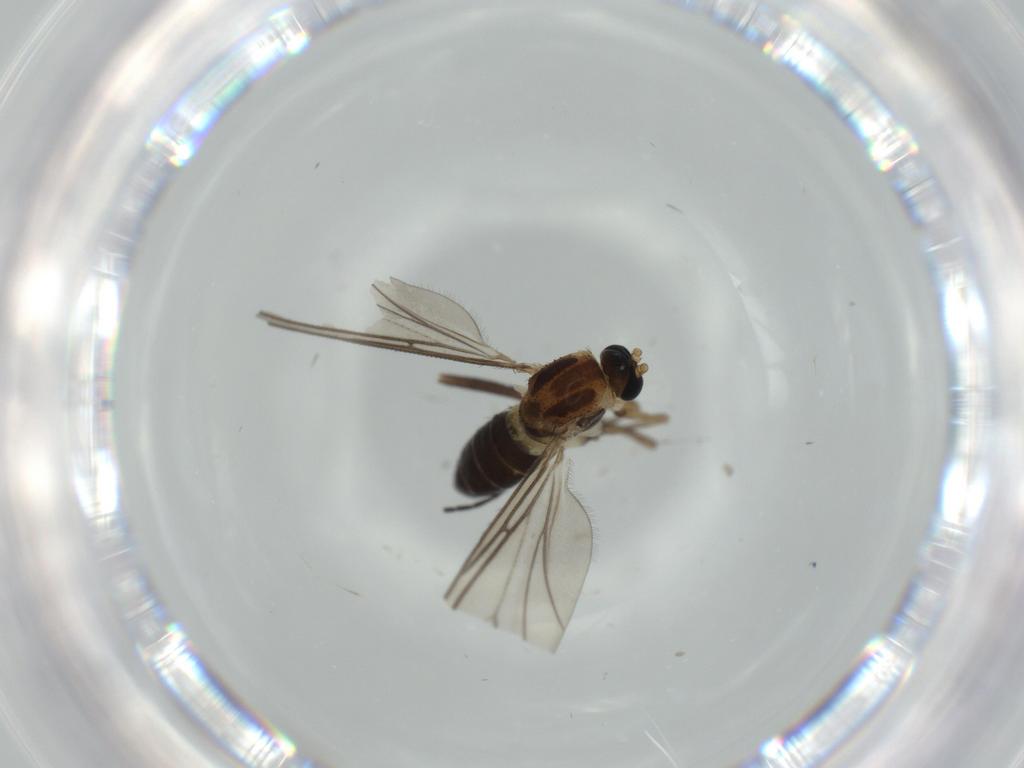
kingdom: Animalia
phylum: Arthropoda
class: Insecta
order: Diptera
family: Sciaridae
